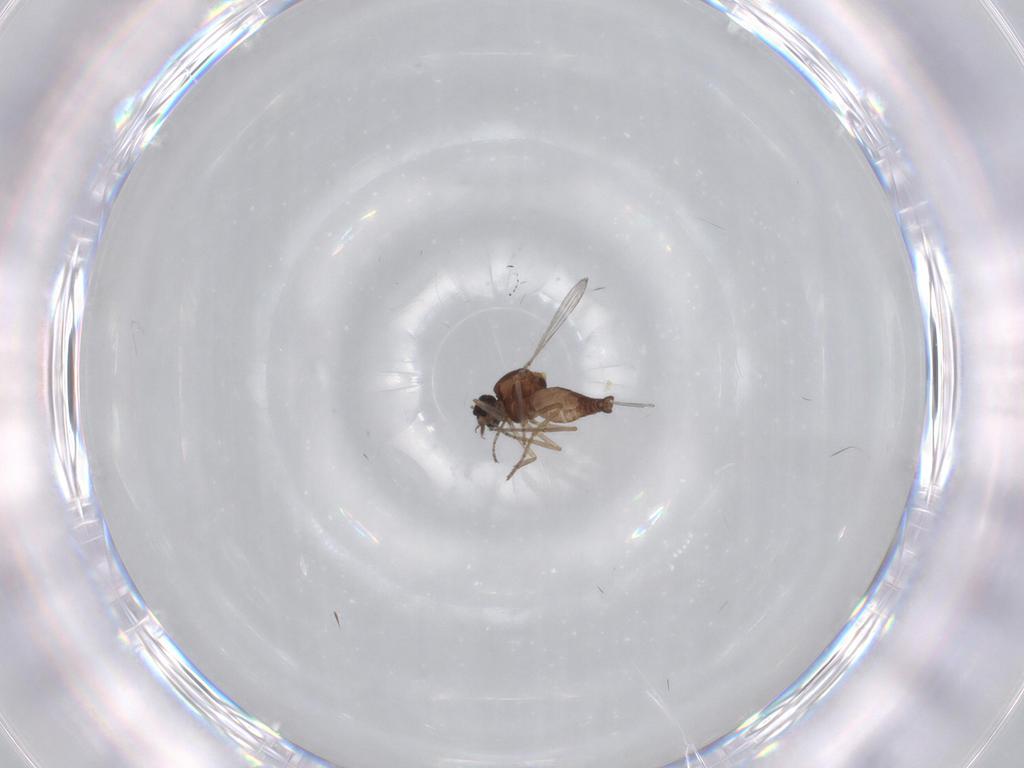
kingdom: Animalia
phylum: Arthropoda
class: Insecta
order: Diptera
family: Ceratopogonidae
